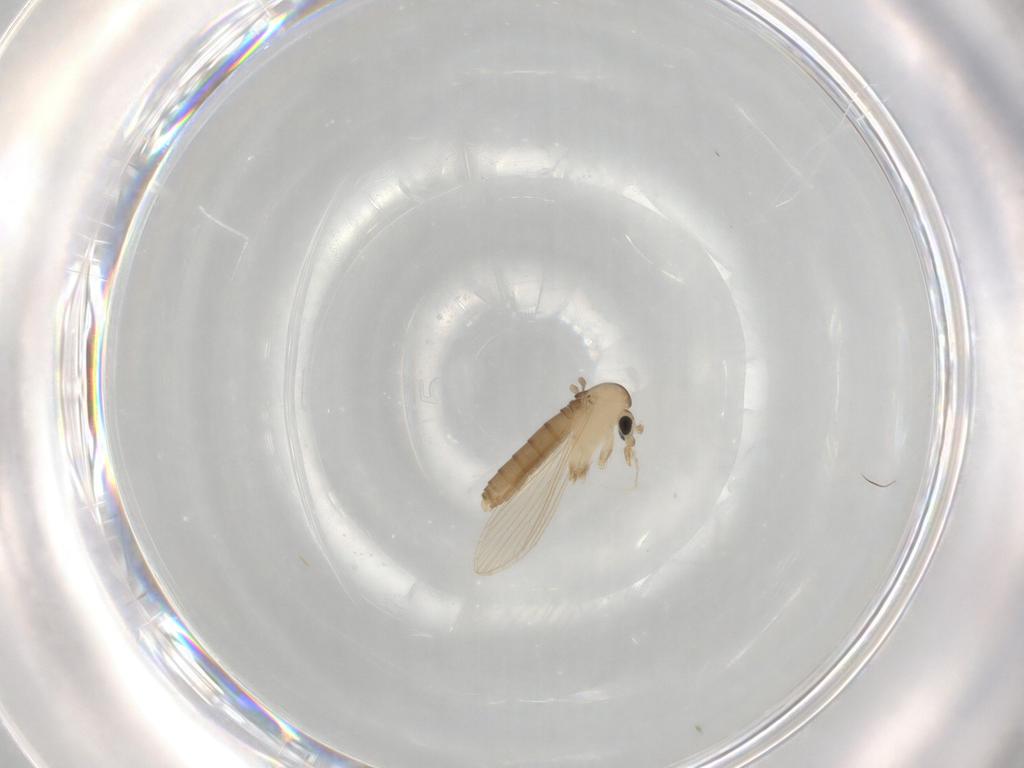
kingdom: Animalia
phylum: Arthropoda
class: Insecta
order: Diptera
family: Psychodidae
